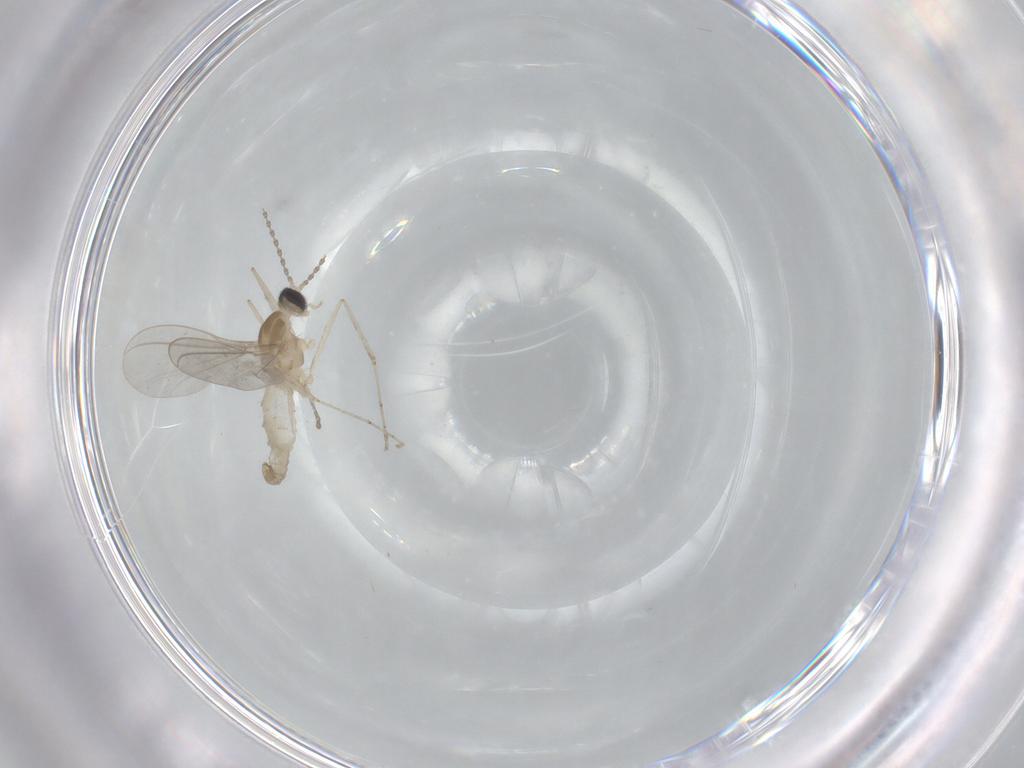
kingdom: Animalia
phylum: Arthropoda
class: Insecta
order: Diptera
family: Cecidomyiidae
